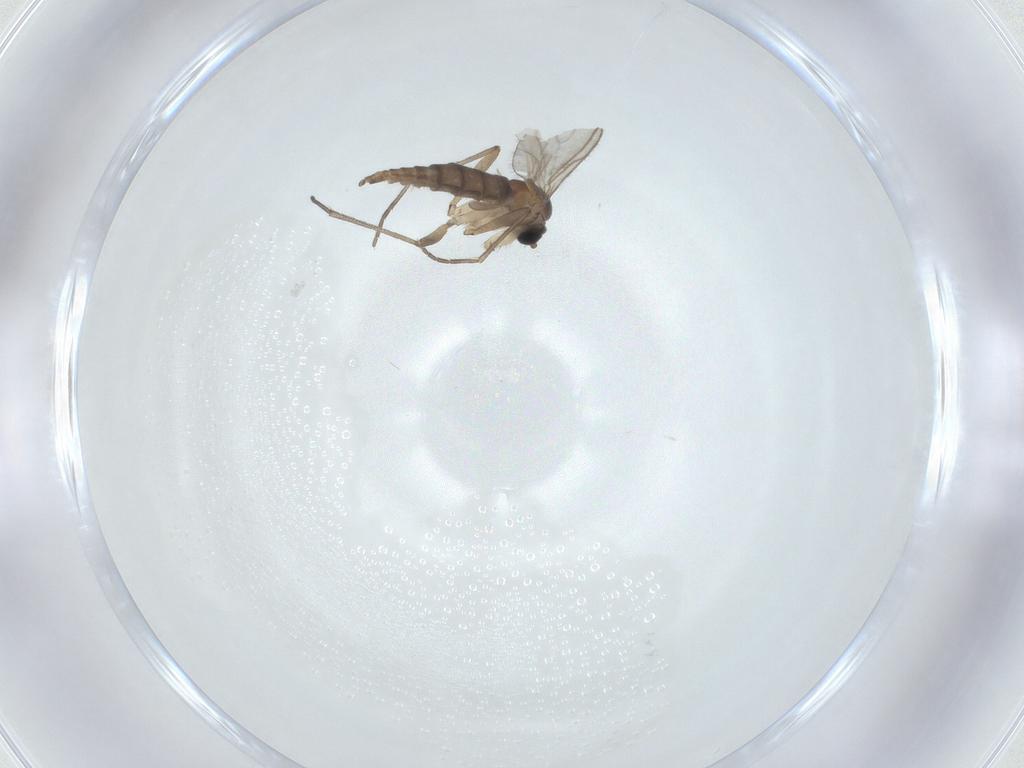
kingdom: Animalia
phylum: Arthropoda
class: Insecta
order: Diptera
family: Sciaridae
